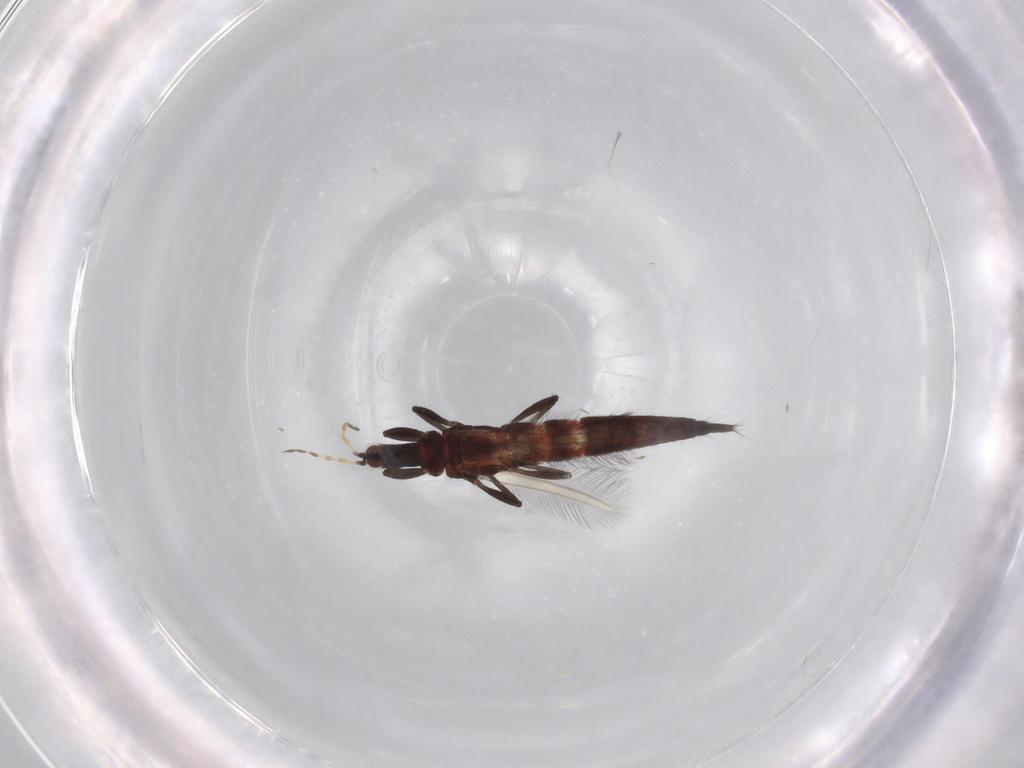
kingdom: Animalia
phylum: Arthropoda
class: Insecta
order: Thysanoptera
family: Phlaeothripidae
